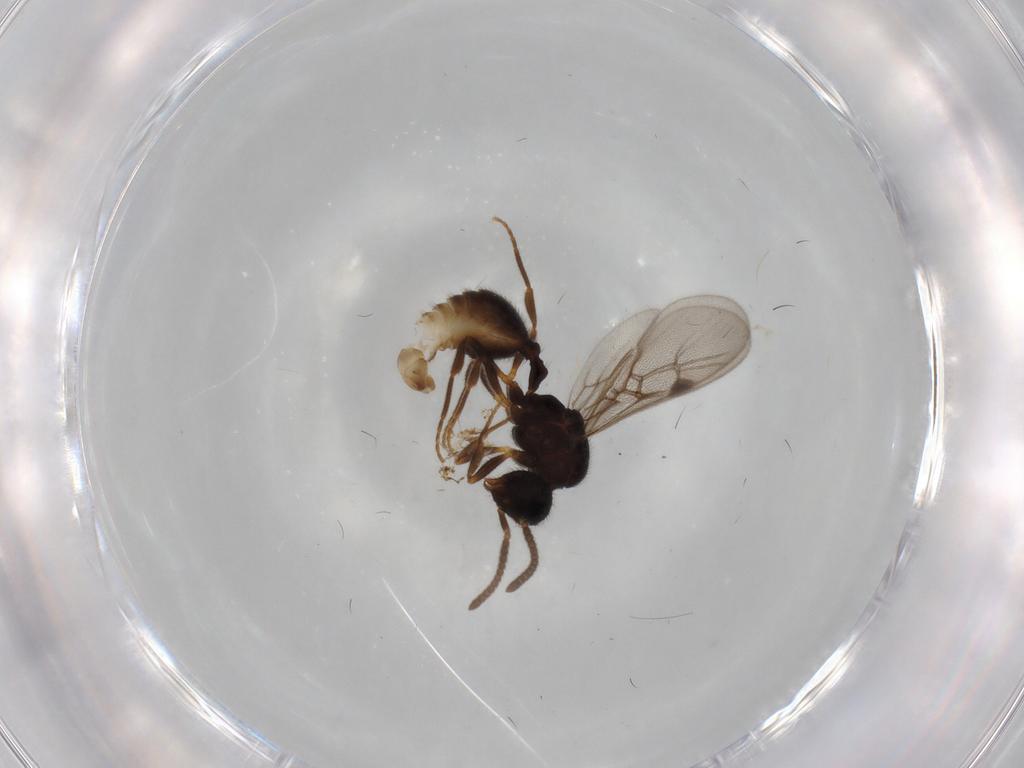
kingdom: Animalia
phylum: Arthropoda
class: Insecta
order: Hymenoptera
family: Formicidae
